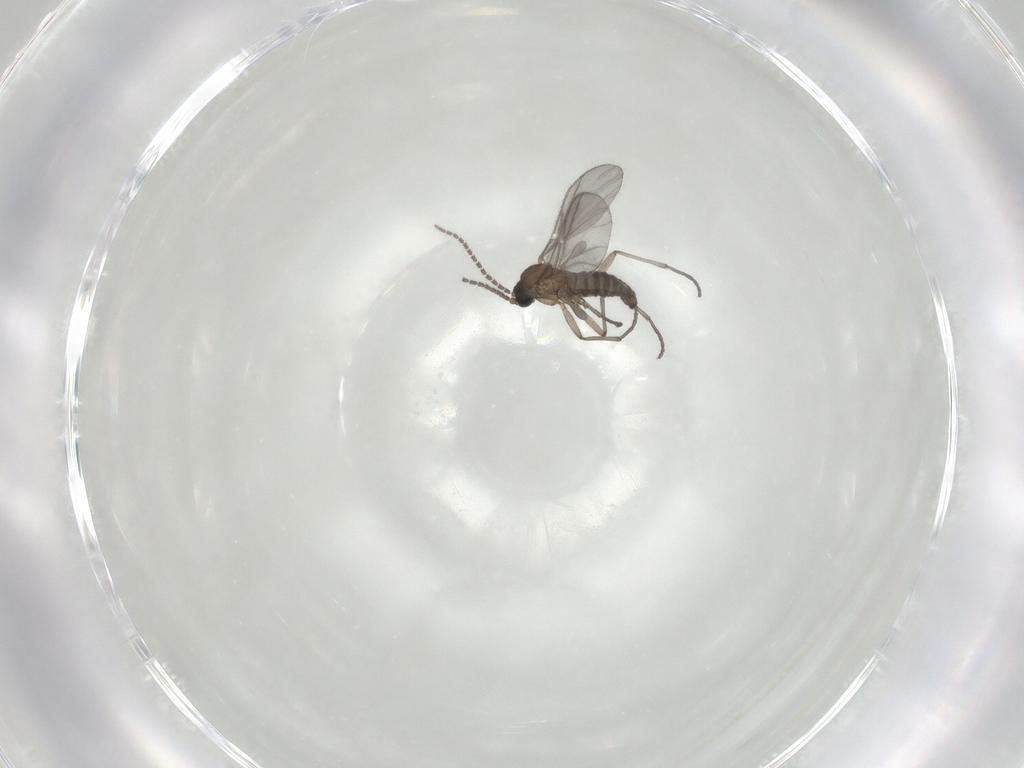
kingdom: Animalia
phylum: Arthropoda
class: Insecta
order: Diptera
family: Sciaridae
